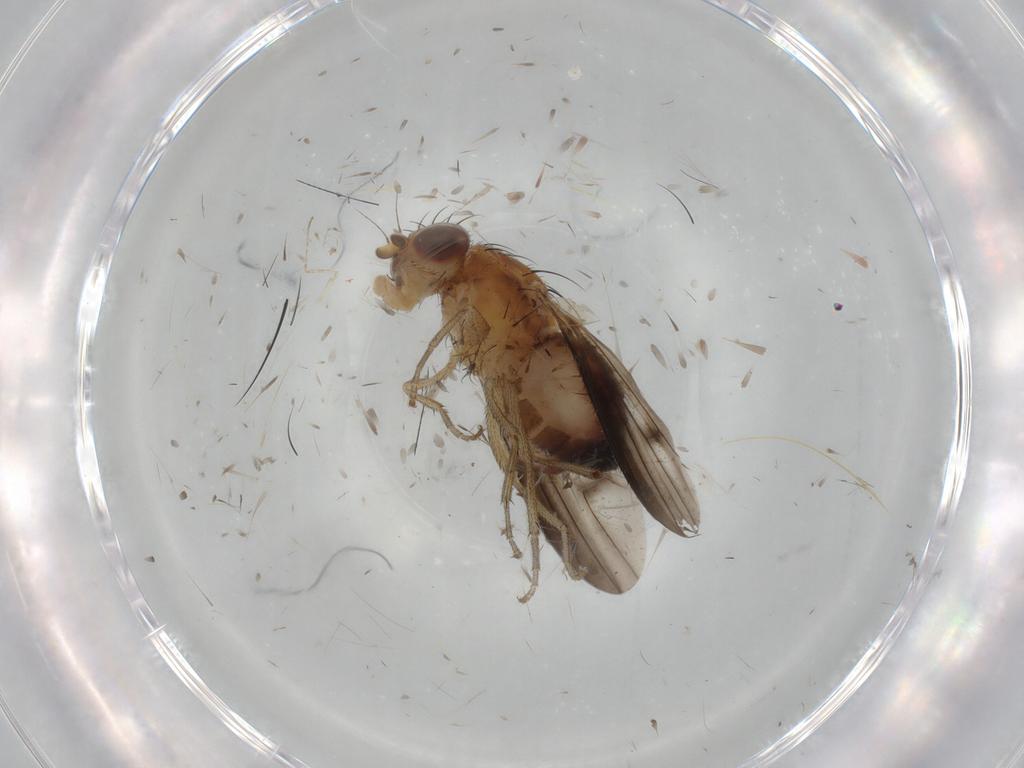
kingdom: Animalia
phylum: Arthropoda
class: Insecta
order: Diptera
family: Heleomyzidae
